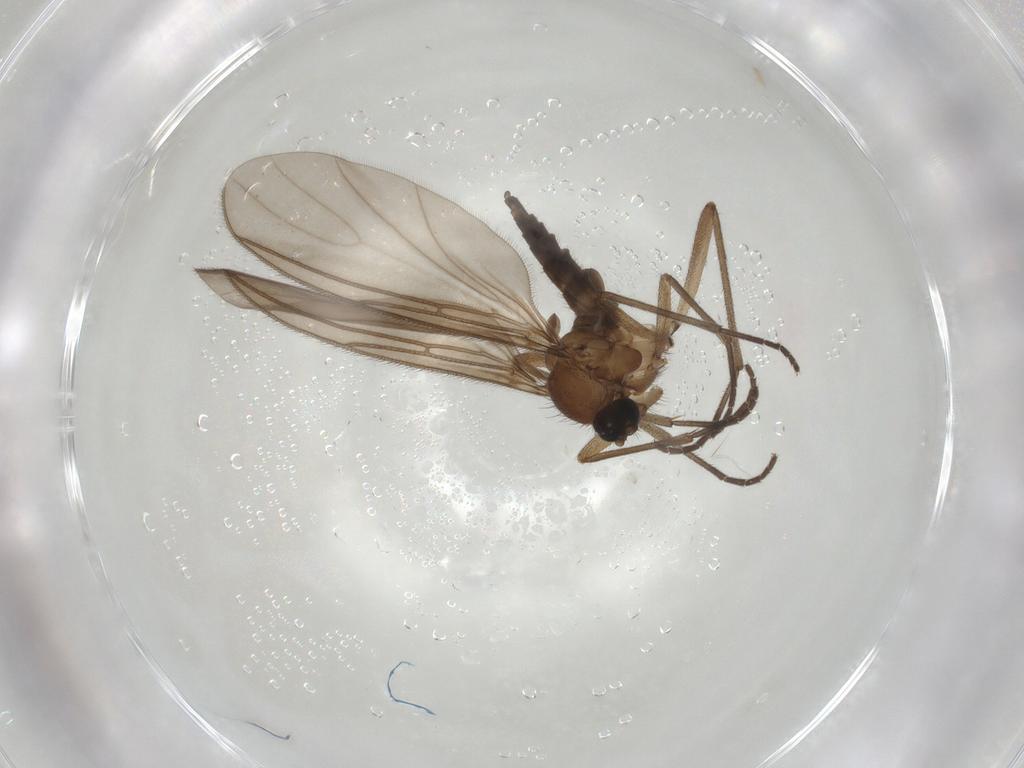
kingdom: Animalia
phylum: Arthropoda
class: Insecta
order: Diptera
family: Sciaridae
